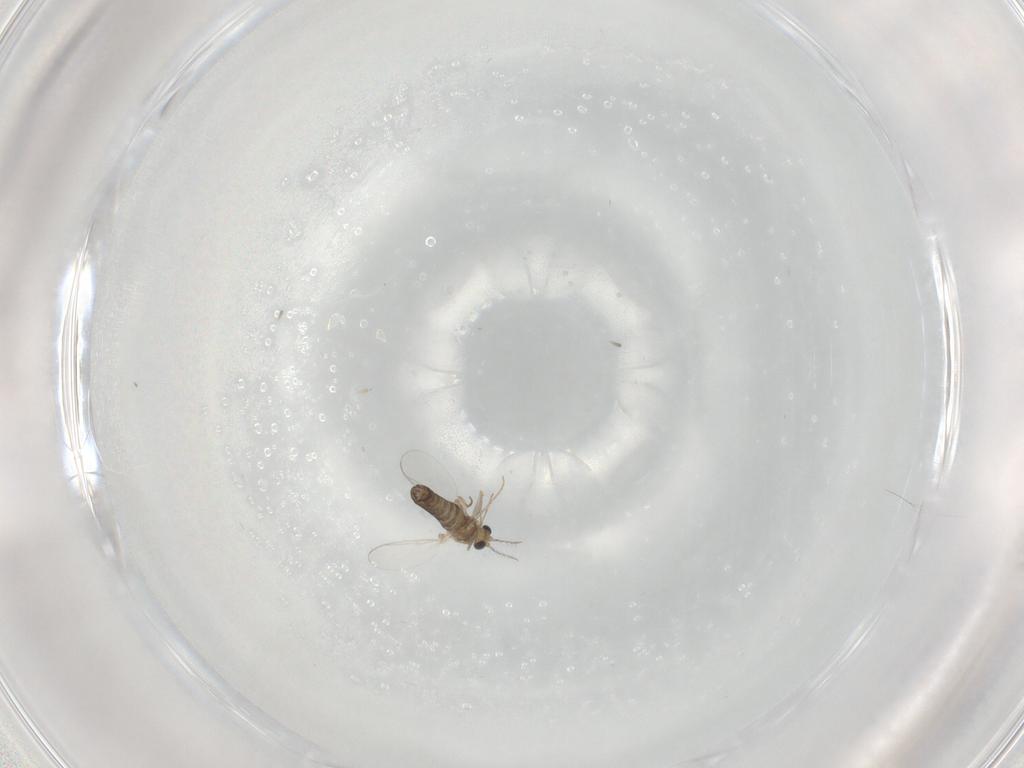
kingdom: Animalia
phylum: Arthropoda
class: Insecta
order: Diptera
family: Chironomidae
